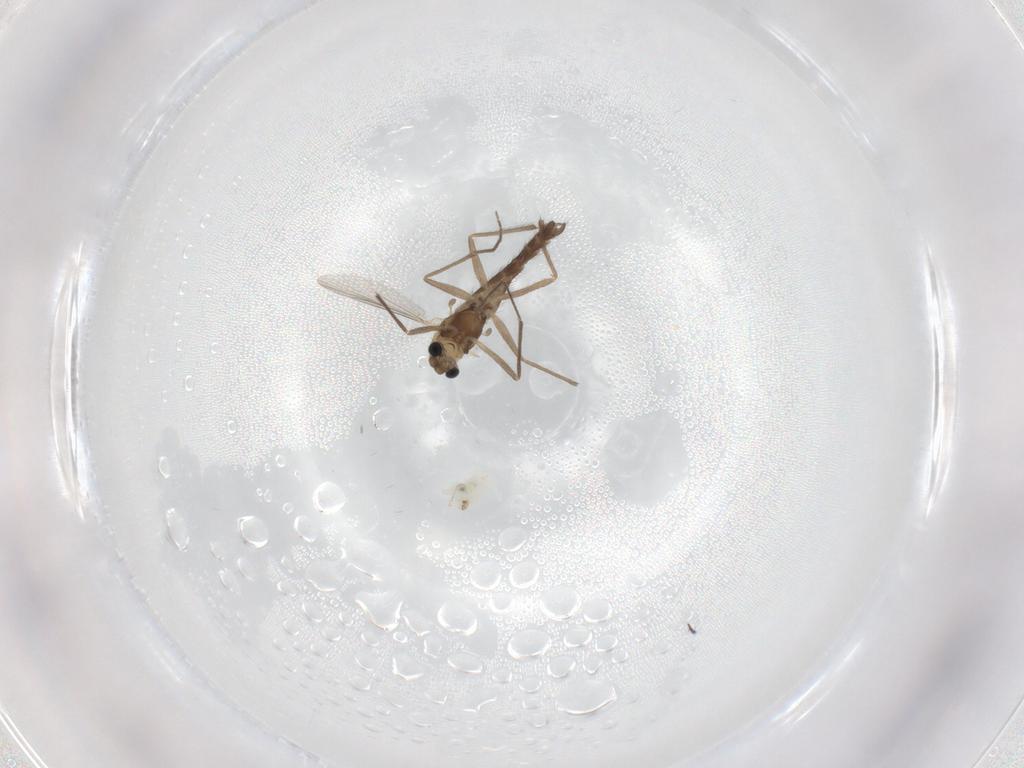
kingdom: Animalia
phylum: Arthropoda
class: Insecta
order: Diptera
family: Chironomidae
